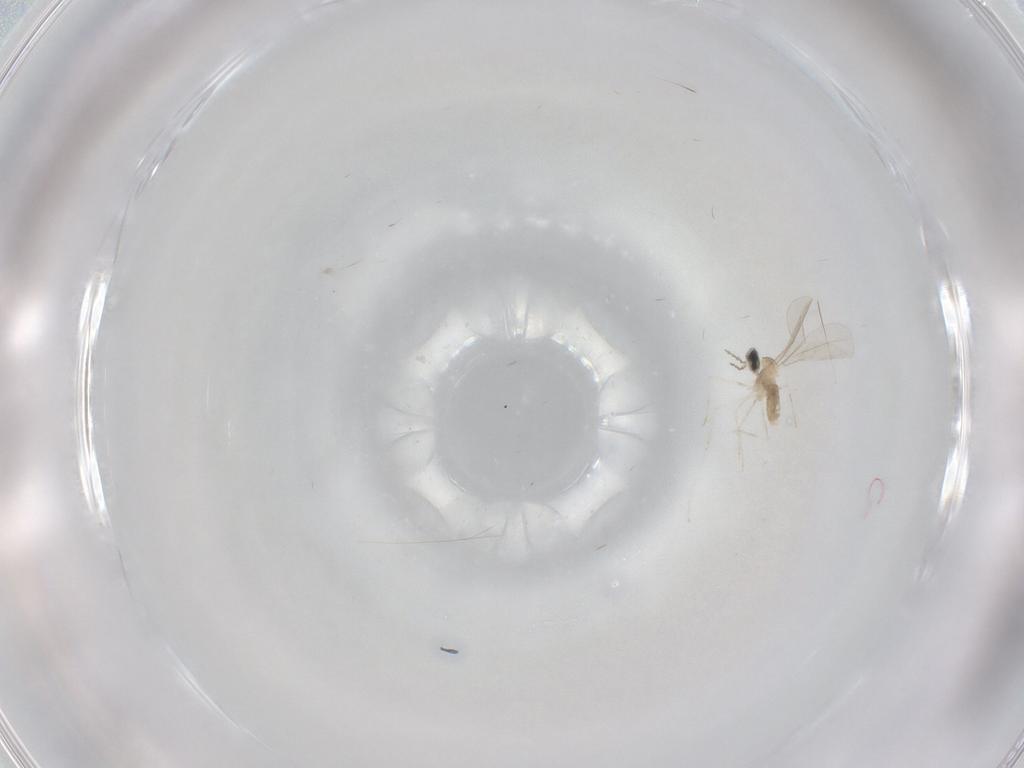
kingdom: Animalia
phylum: Arthropoda
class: Insecta
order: Diptera
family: Cecidomyiidae
